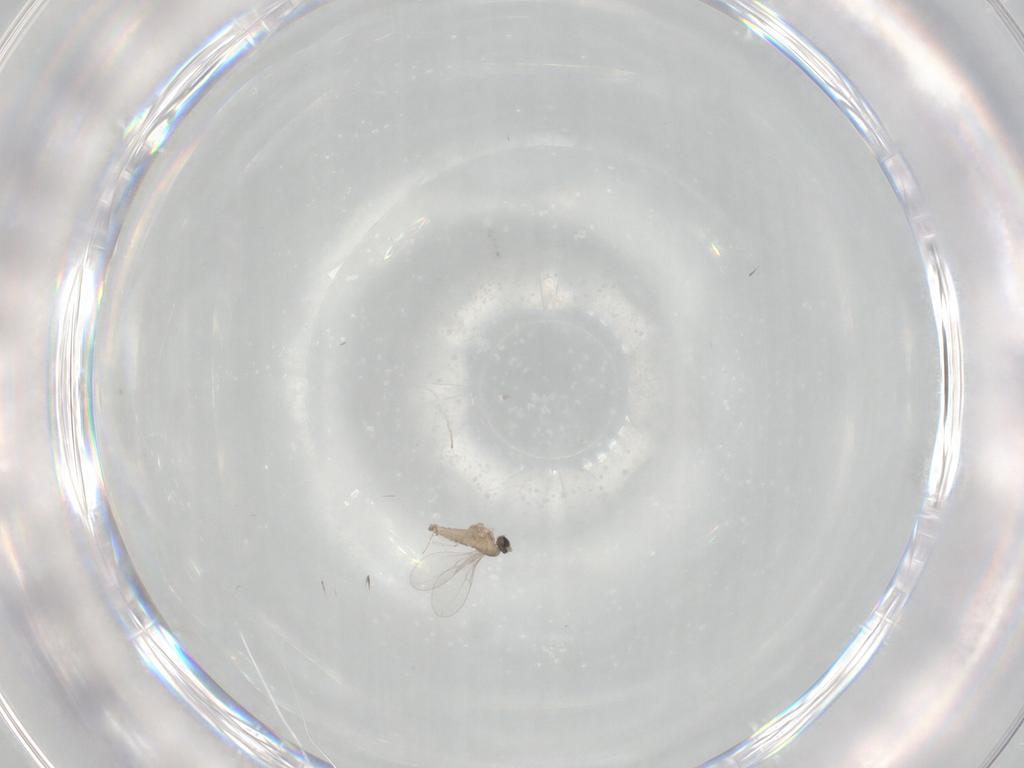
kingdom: Animalia
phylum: Arthropoda
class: Insecta
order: Diptera
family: Cecidomyiidae
